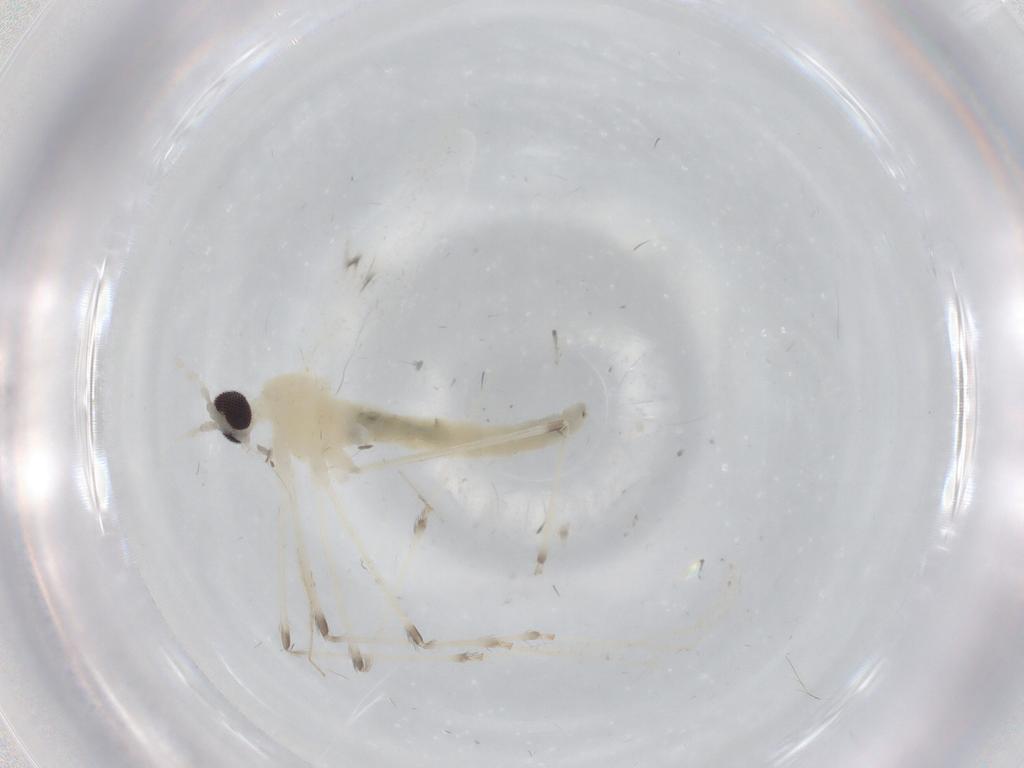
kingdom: Animalia
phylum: Arthropoda
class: Insecta
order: Diptera
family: Cecidomyiidae
